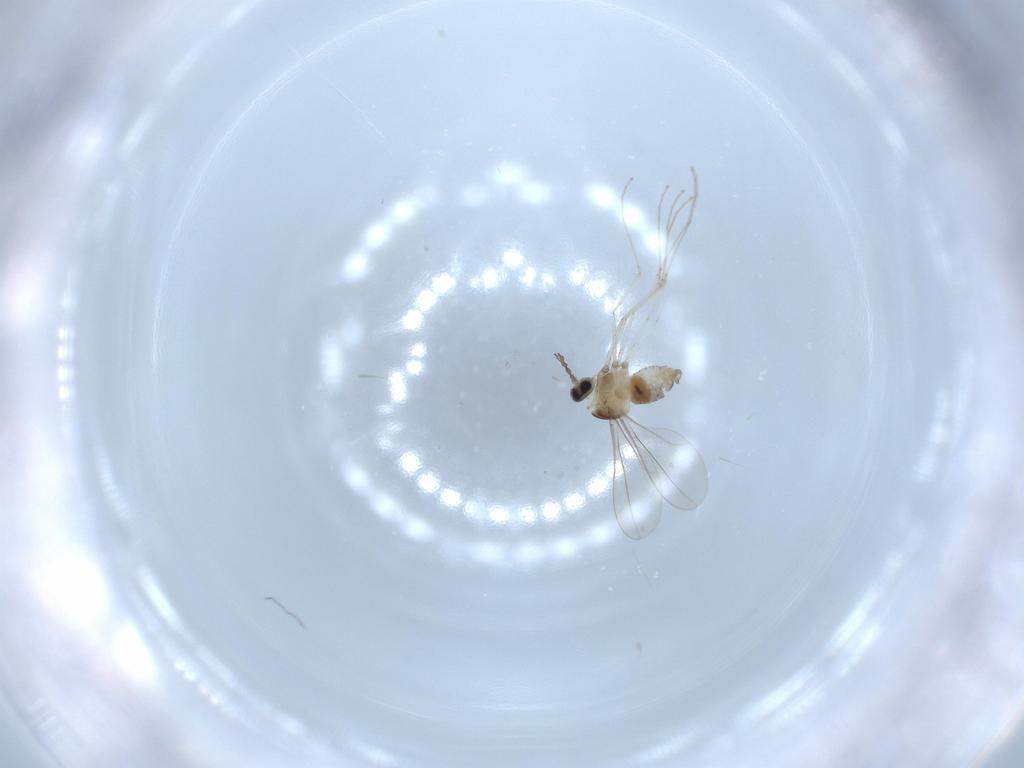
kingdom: Animalia
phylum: Arthropoda
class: Insecta
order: Diptera
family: Cecidomyiidae
